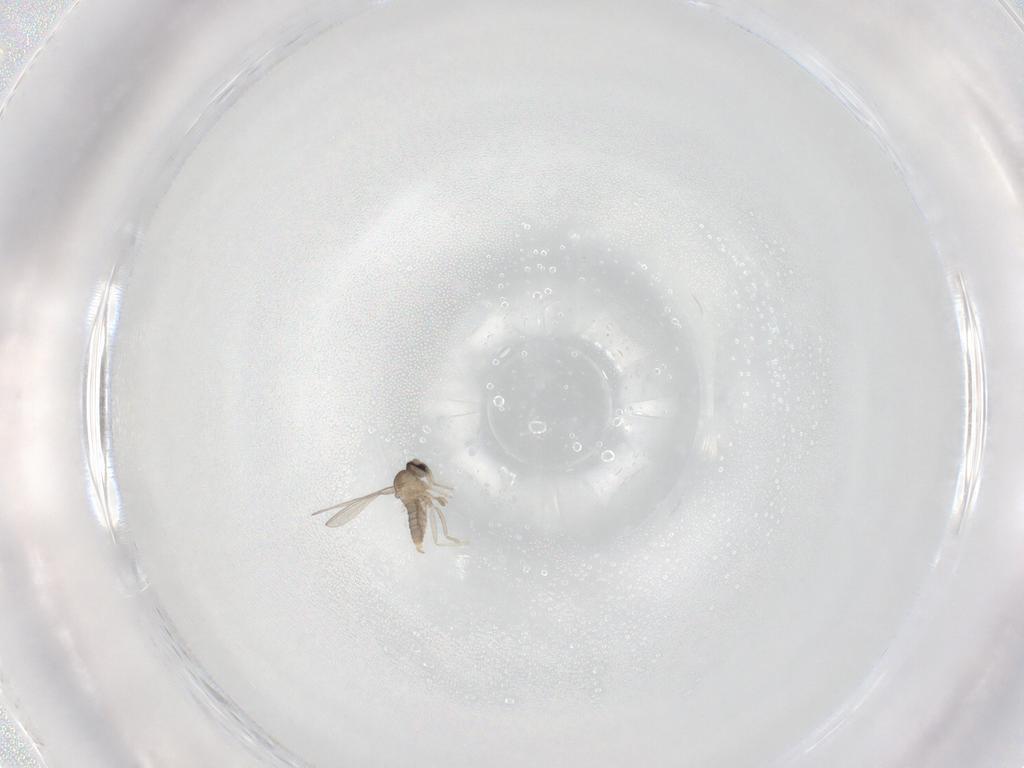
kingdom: Animalia
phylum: Arthropoda
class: Insecta
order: Diptera
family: Cecidomyiidae
